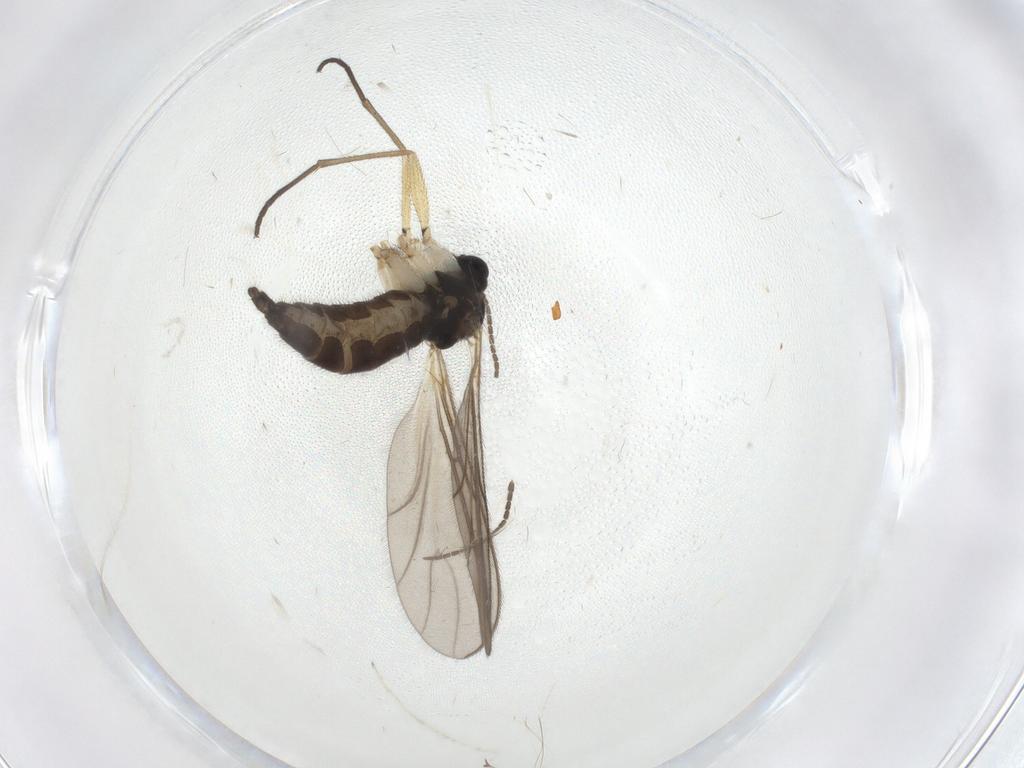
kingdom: Animalia
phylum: Arthropoda
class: Insecta
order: Diptera
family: Sciaridae
